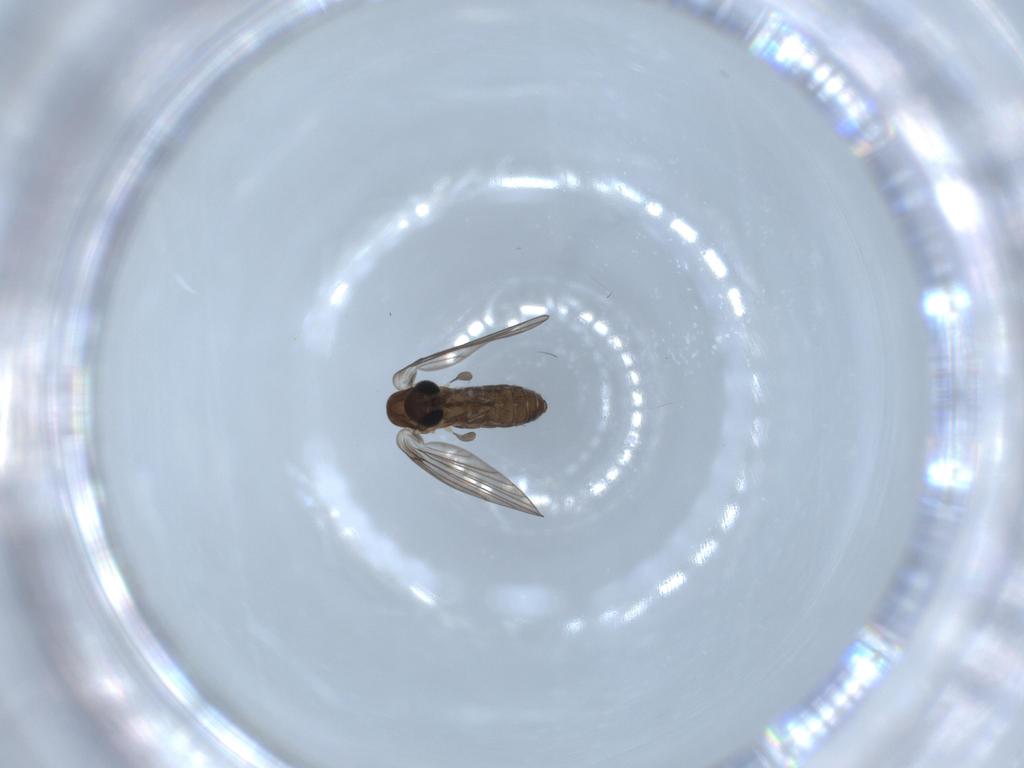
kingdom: Animalia
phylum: Arthropoda
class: Insecta
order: Diptera
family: Psychodidae
